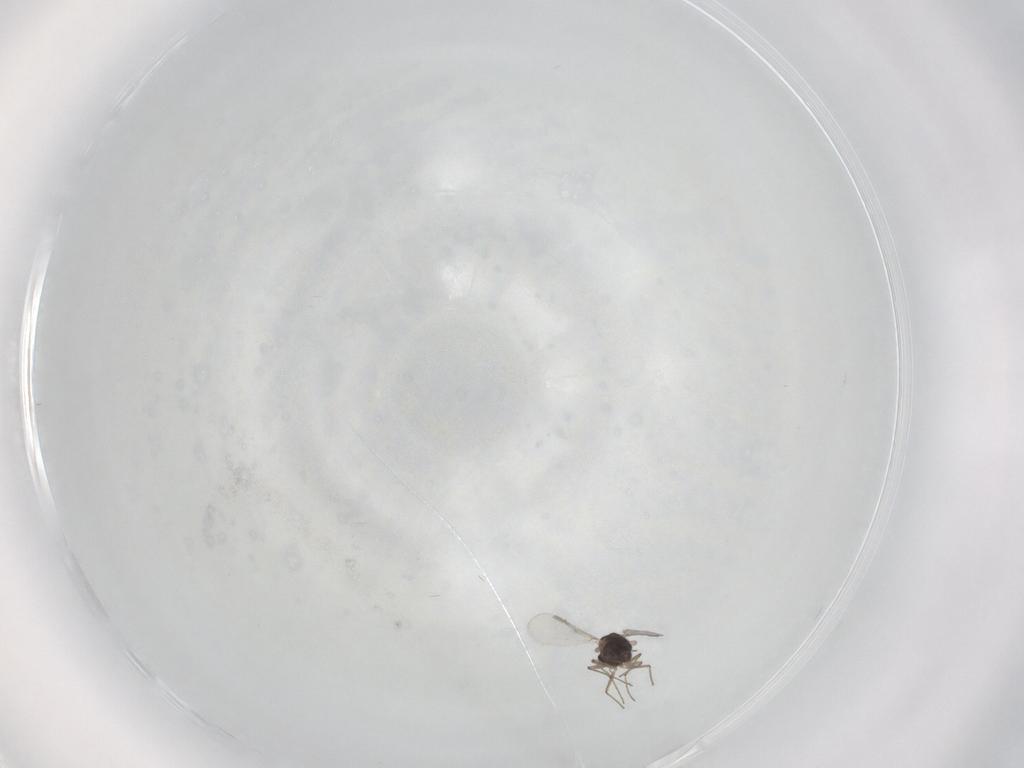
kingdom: Animalia
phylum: Arthropoda
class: Insecta
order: Diptera
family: Chironomidae
